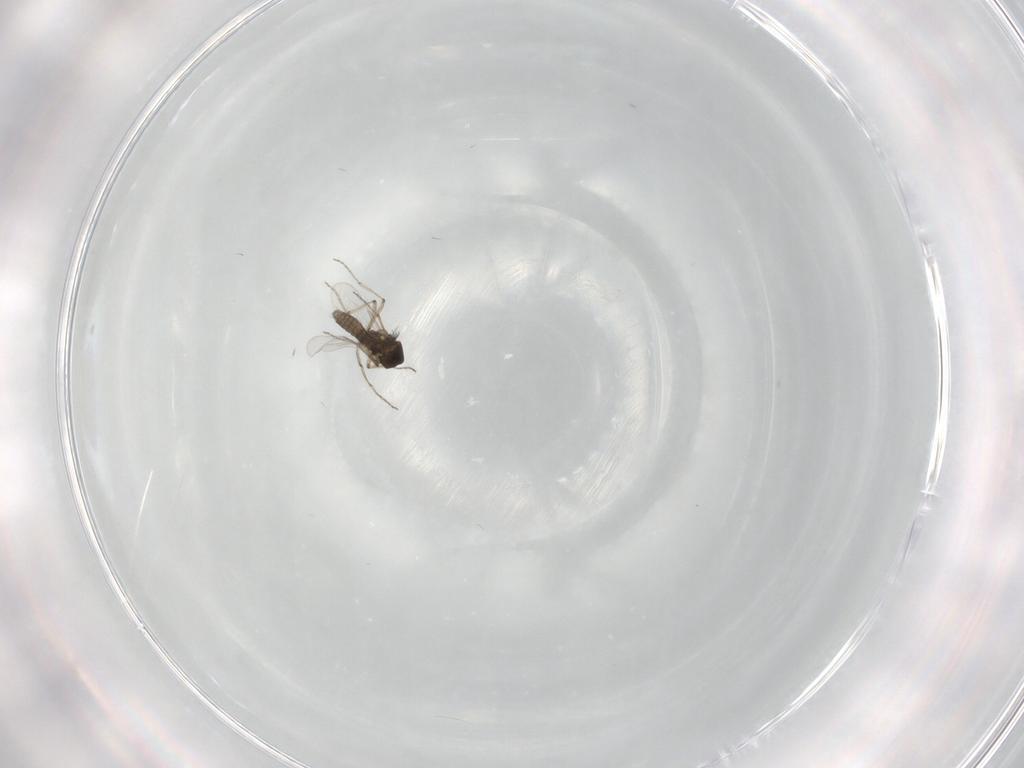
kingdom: Animalia
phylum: Arthropoda
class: Insecta
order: Diptera
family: Ceratopogonidae
